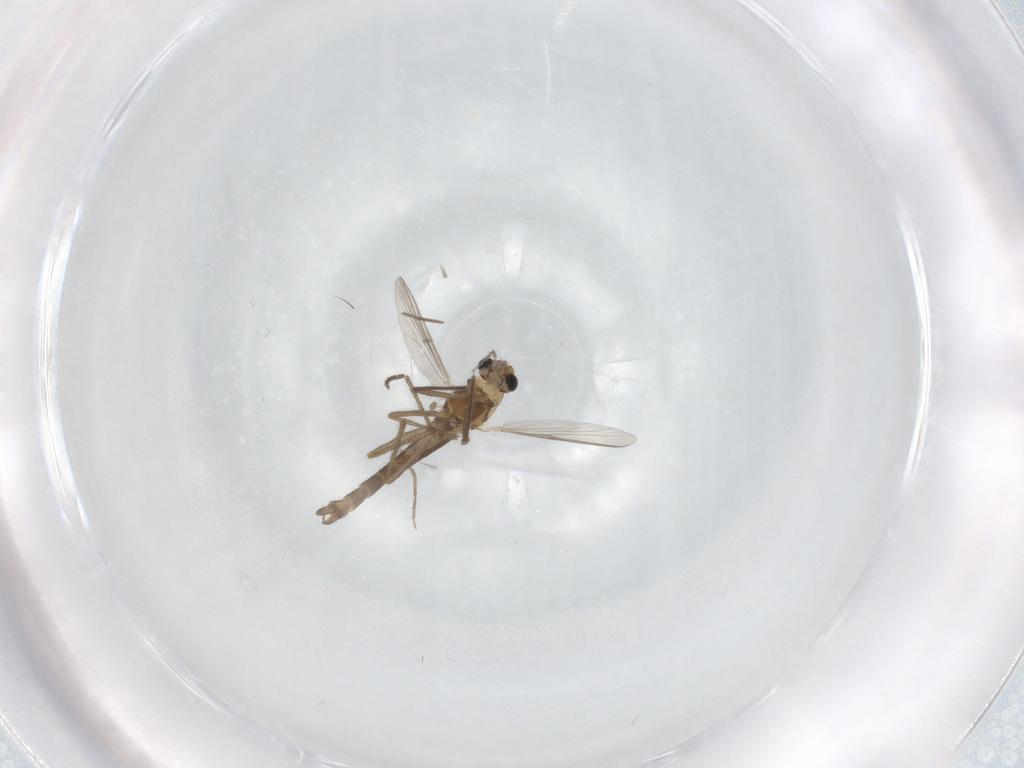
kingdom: Animalia
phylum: Arthropoda
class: Insecta
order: Diptera
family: Chironomidae
